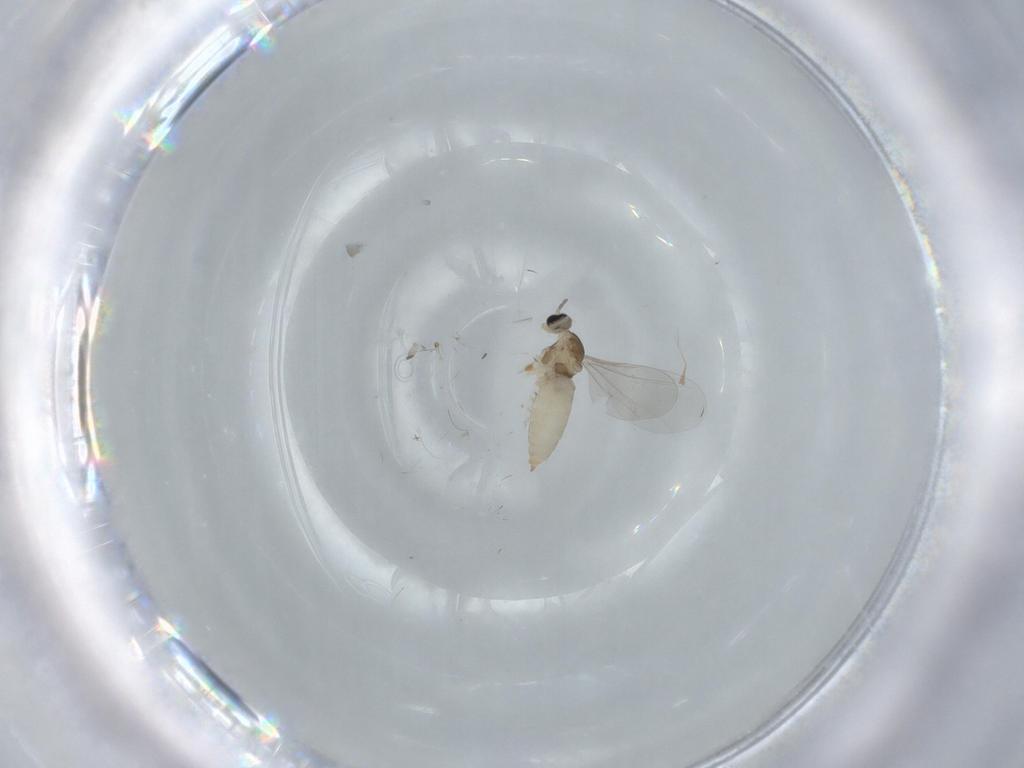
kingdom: Animalia
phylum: Arthropoda
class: Insecta
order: Diptera
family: Cecidomyiidae
